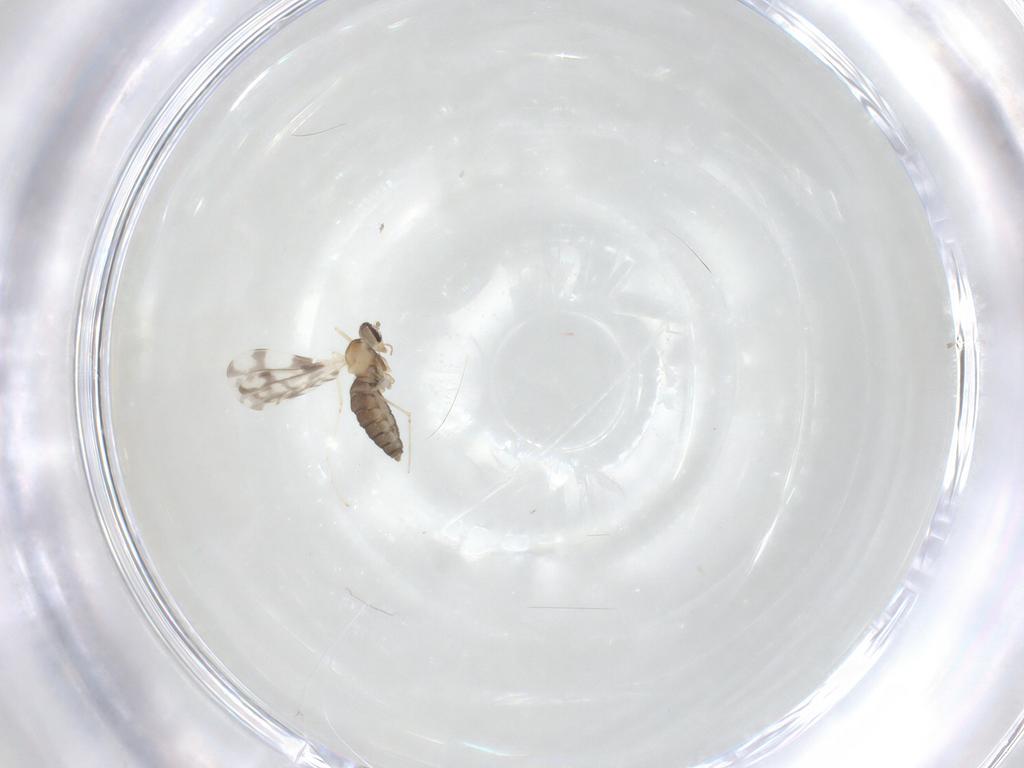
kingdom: Animalia
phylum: Arthropoda
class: Insecta
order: Diptera
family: Cecidomyiidae
